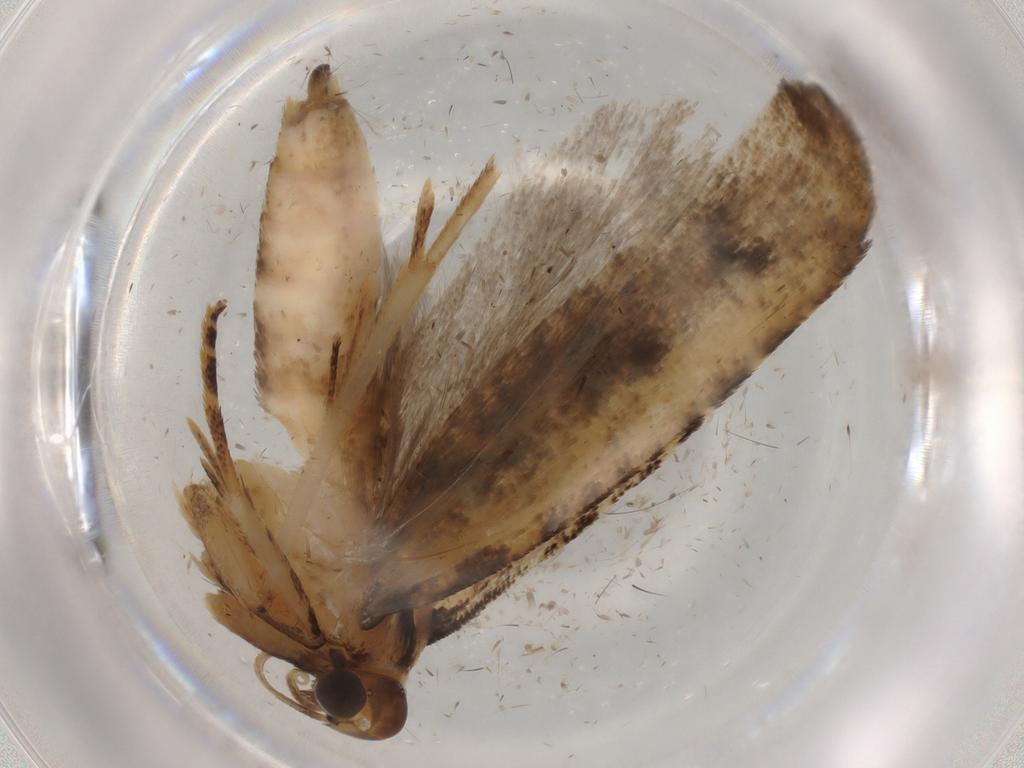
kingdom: Animalia
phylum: Arthropoda
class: Insecta
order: Lepidoptera
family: Gelechiidae
